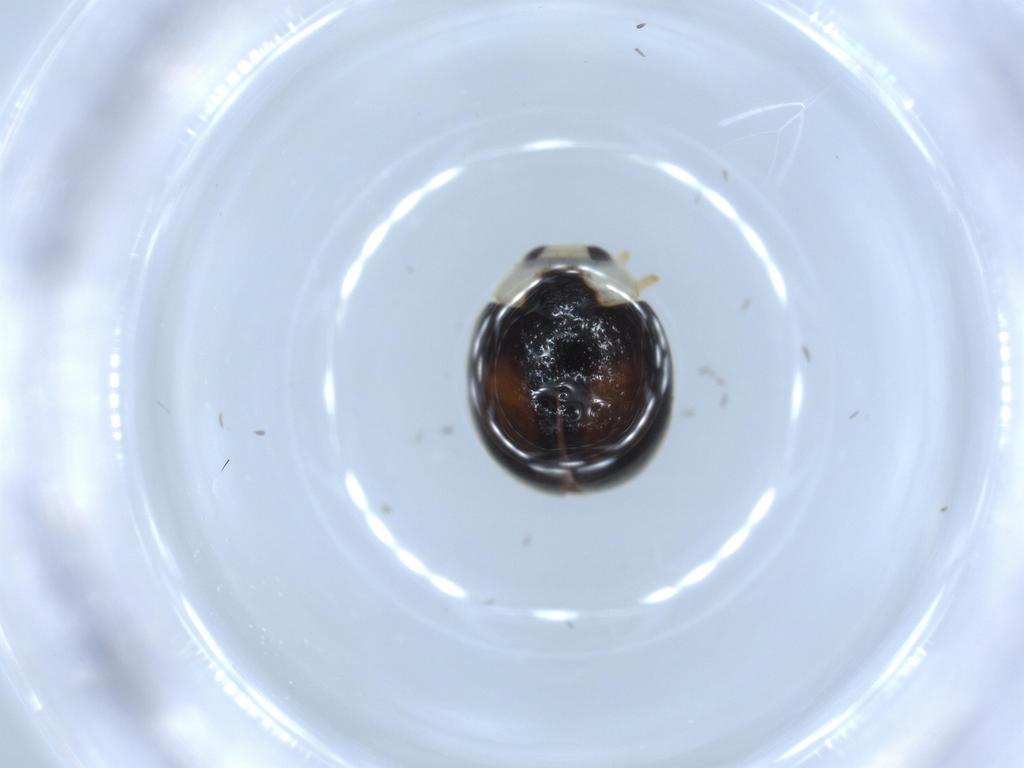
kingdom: Animalia
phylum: Arthropoda
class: Insecta
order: Coleoptera
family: Coccinellidae
